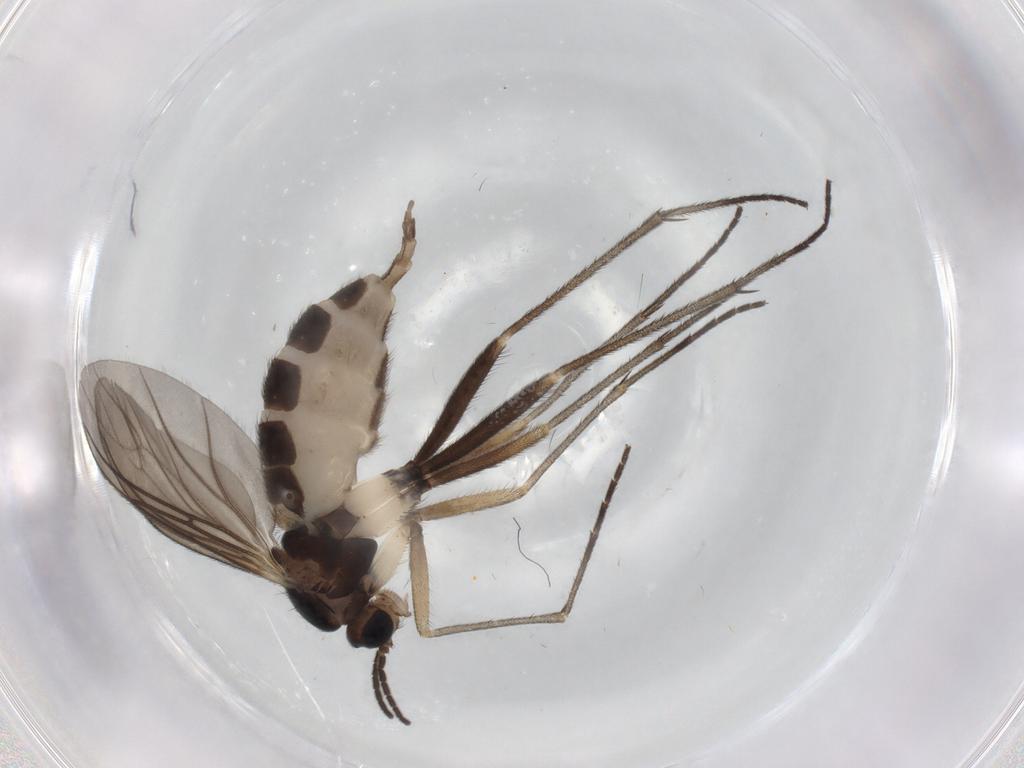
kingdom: Animalia
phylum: Arthropoda
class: Insecta
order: Diptera
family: Sciaridae
